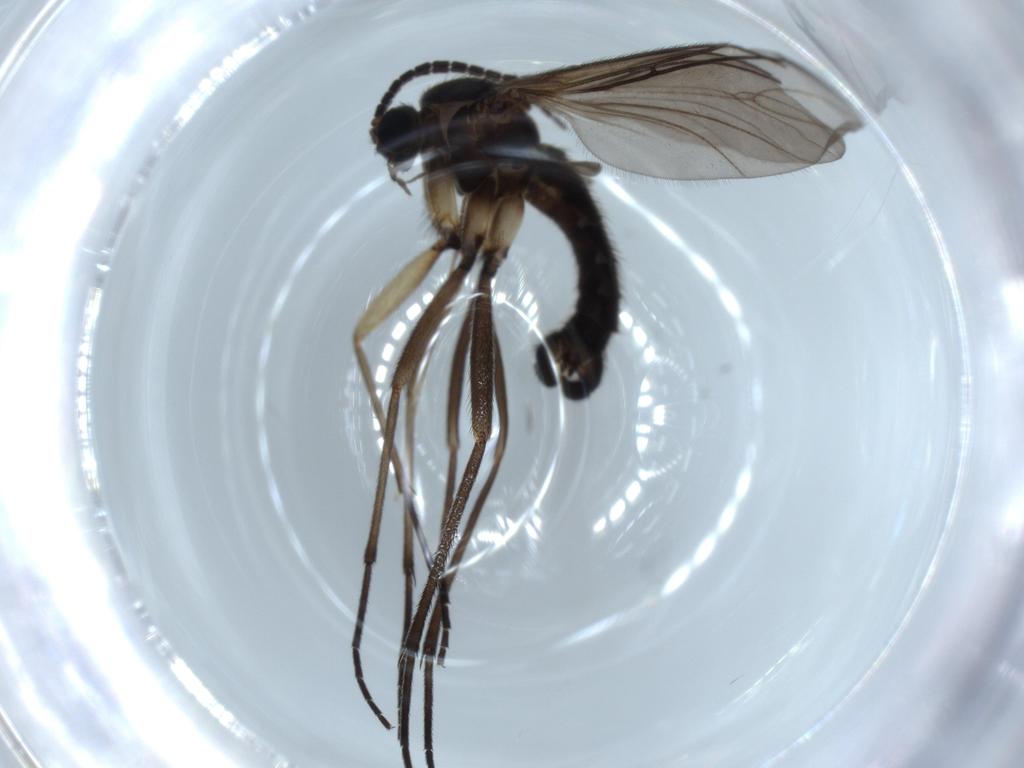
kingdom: Animalia
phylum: Arthropoda
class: Insecta
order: Diptera
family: Sciaridae
